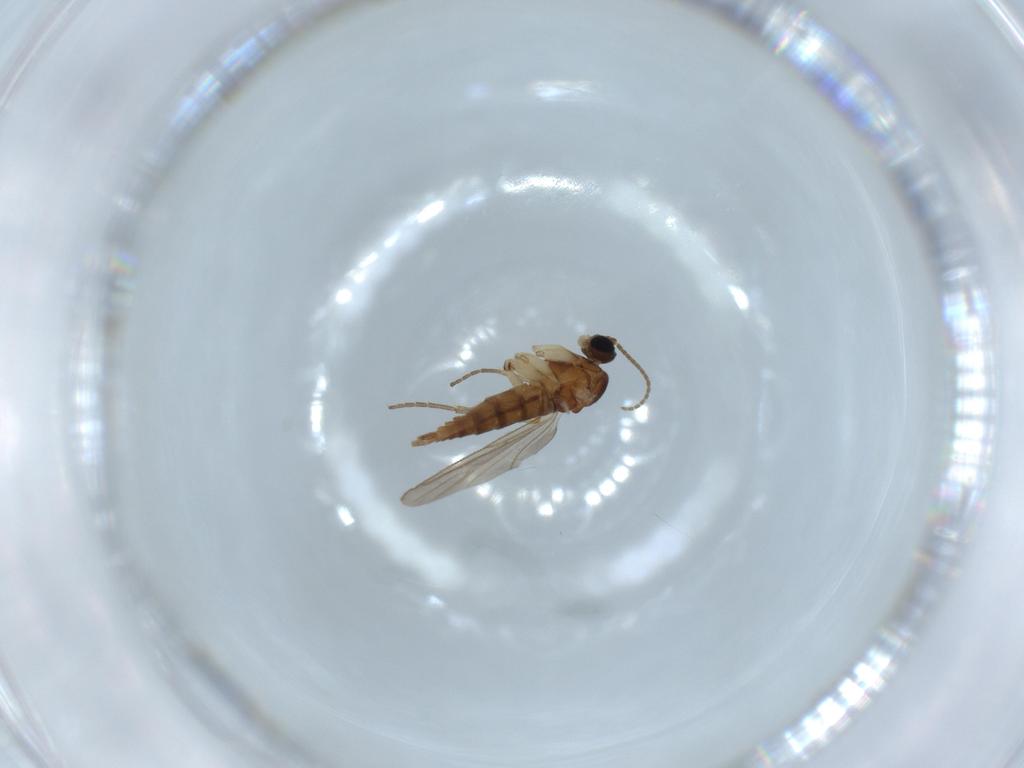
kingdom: Animalia
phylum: Arthropoda
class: Insecta
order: Diptera
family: Sciaridae
